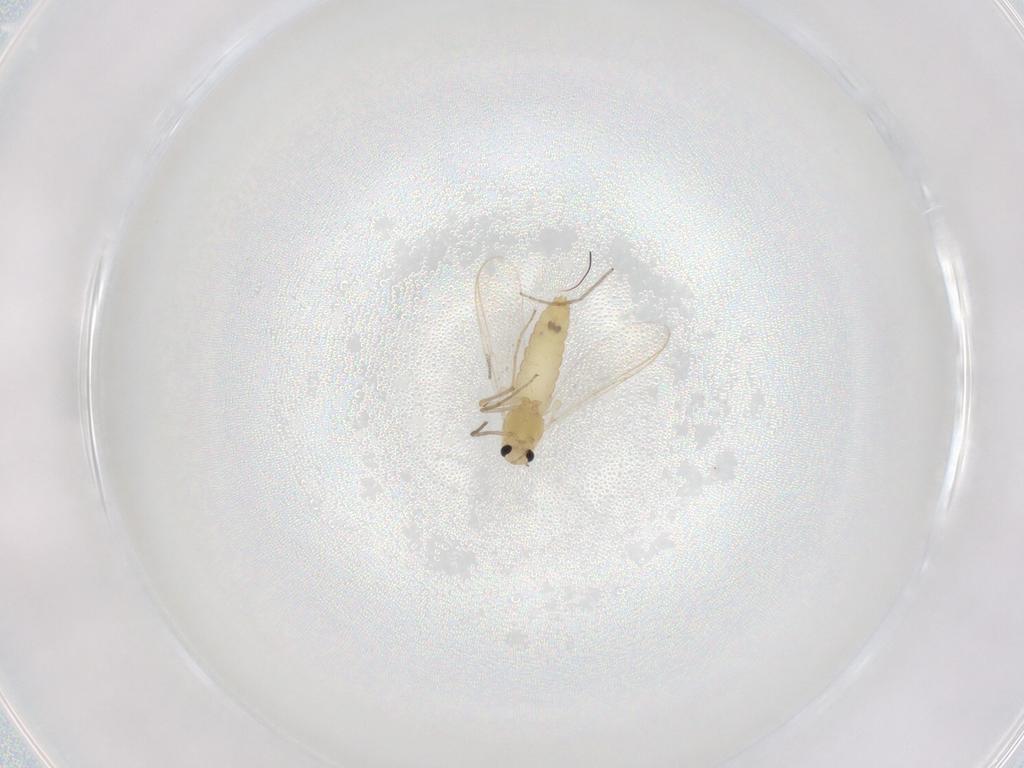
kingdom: Animalia
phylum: Arthropoda
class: Insecta
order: Diptera
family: Chironomidae
